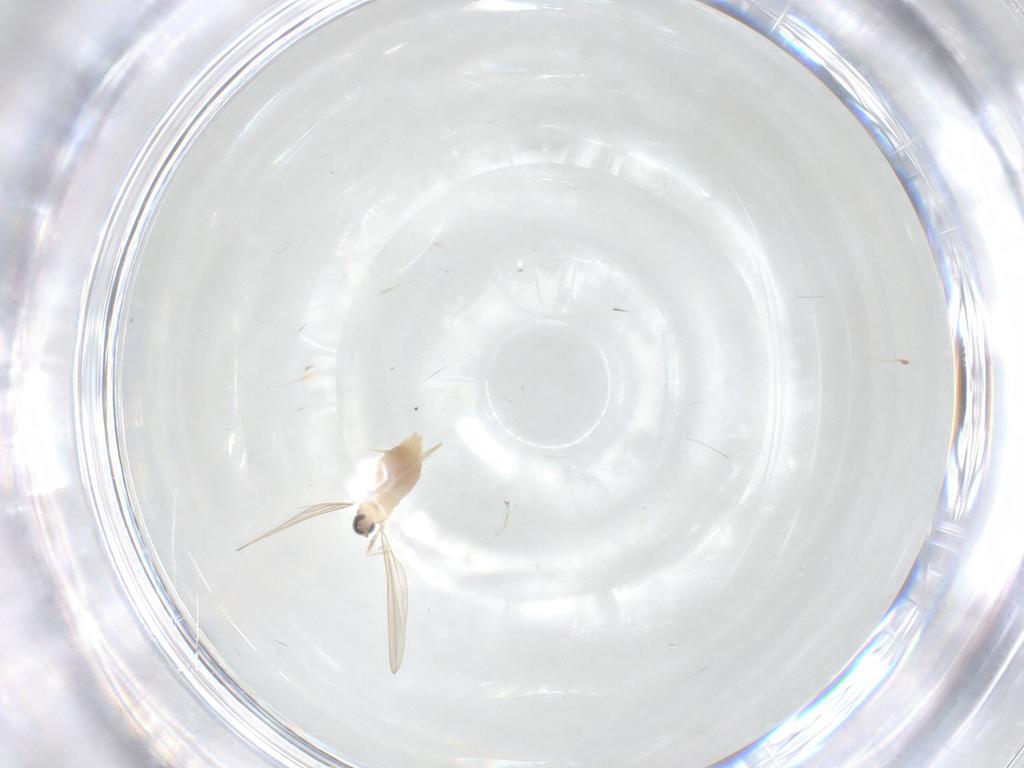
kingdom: Animalia
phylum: Arthropoda
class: Insecta
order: Diptera
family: Cecidomyiidae
